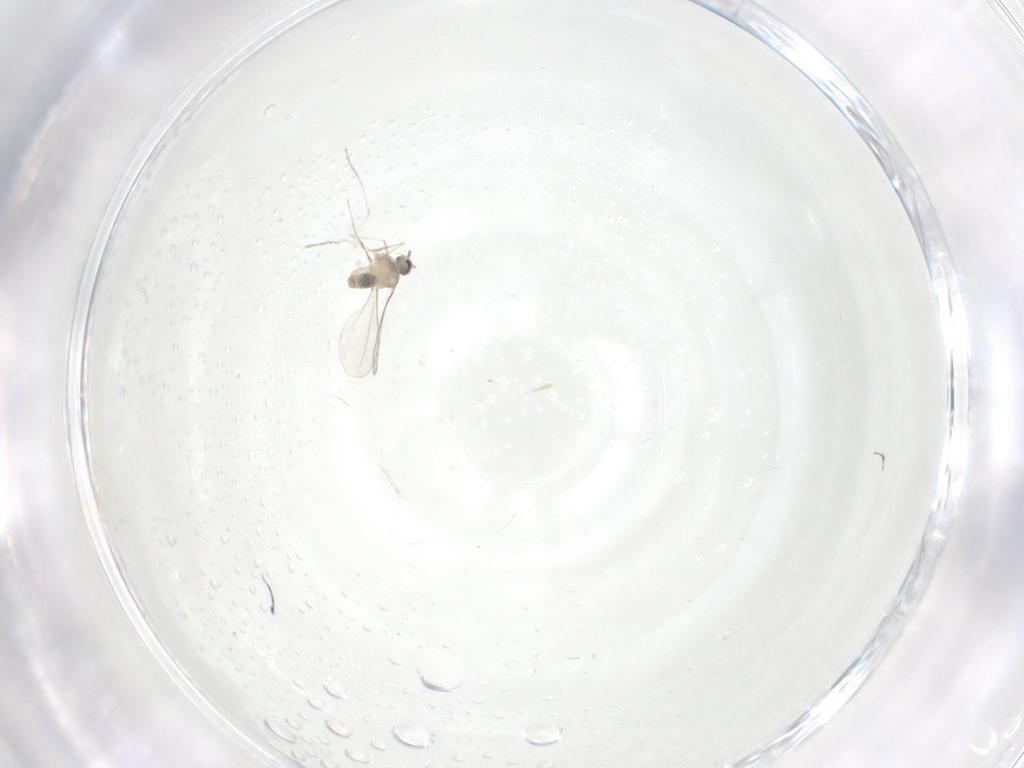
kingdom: Animalia
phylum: Arthropoda
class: Insecta
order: Diptera
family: Cecidomyiidae
